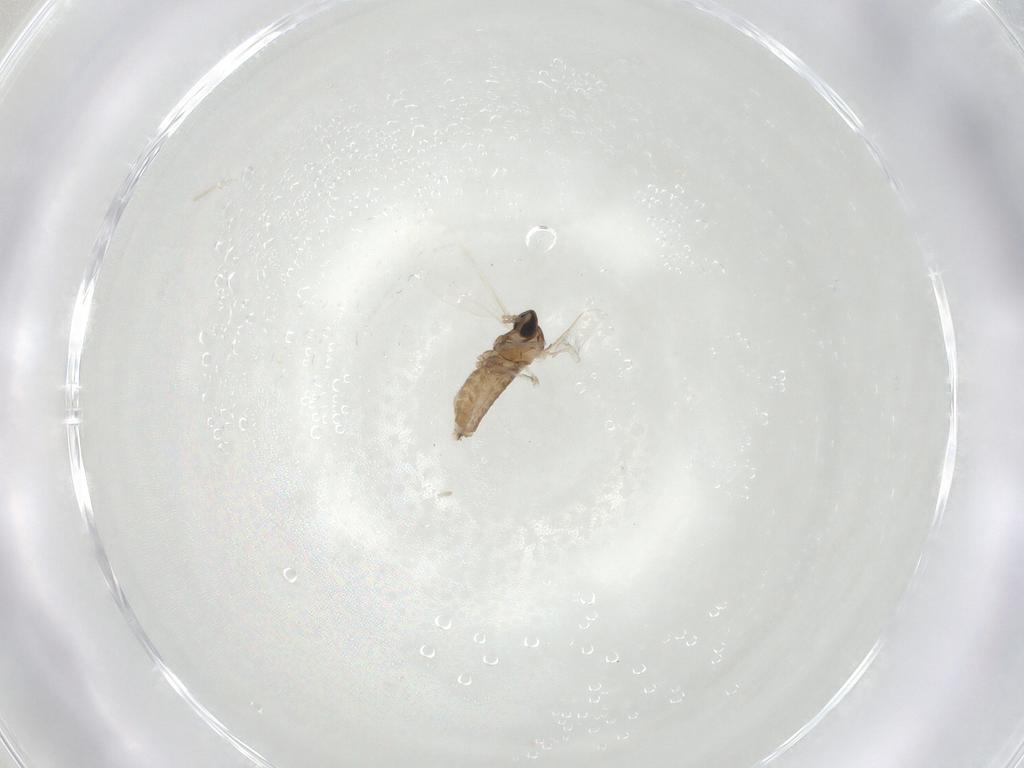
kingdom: Animalia
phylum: Arthropoda
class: Insecta
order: Diptera
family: Cecidomyiidae
